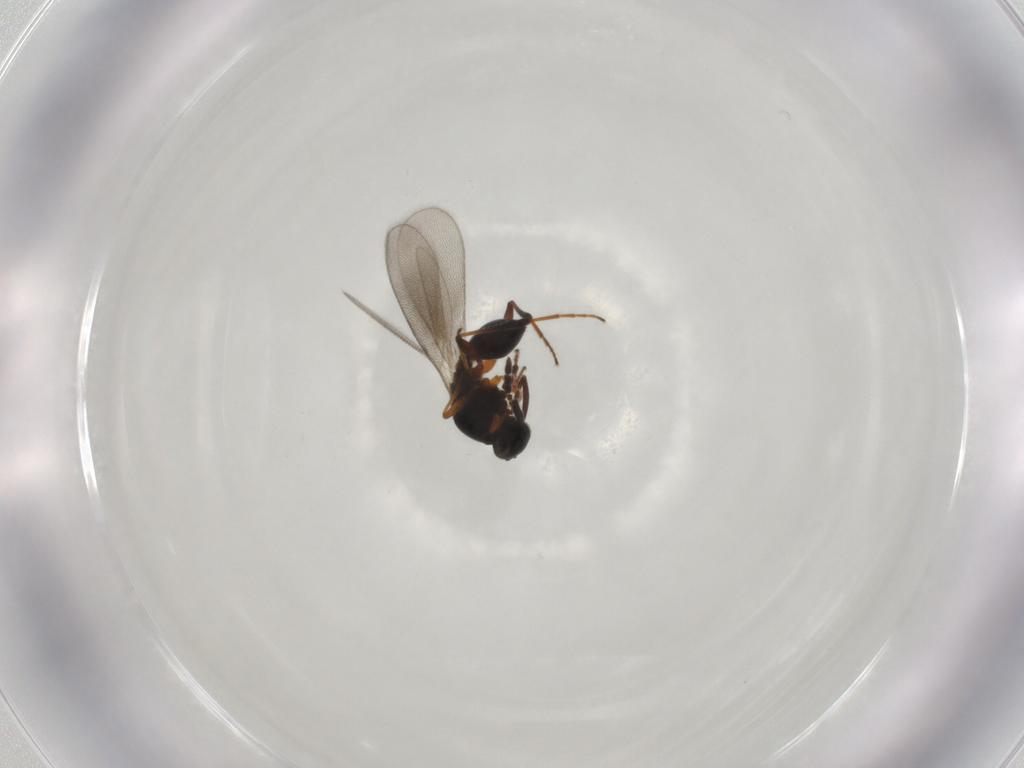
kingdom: Animalia
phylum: Arthropoda
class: Insecta
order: Hymenoptera
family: Platygastridae
